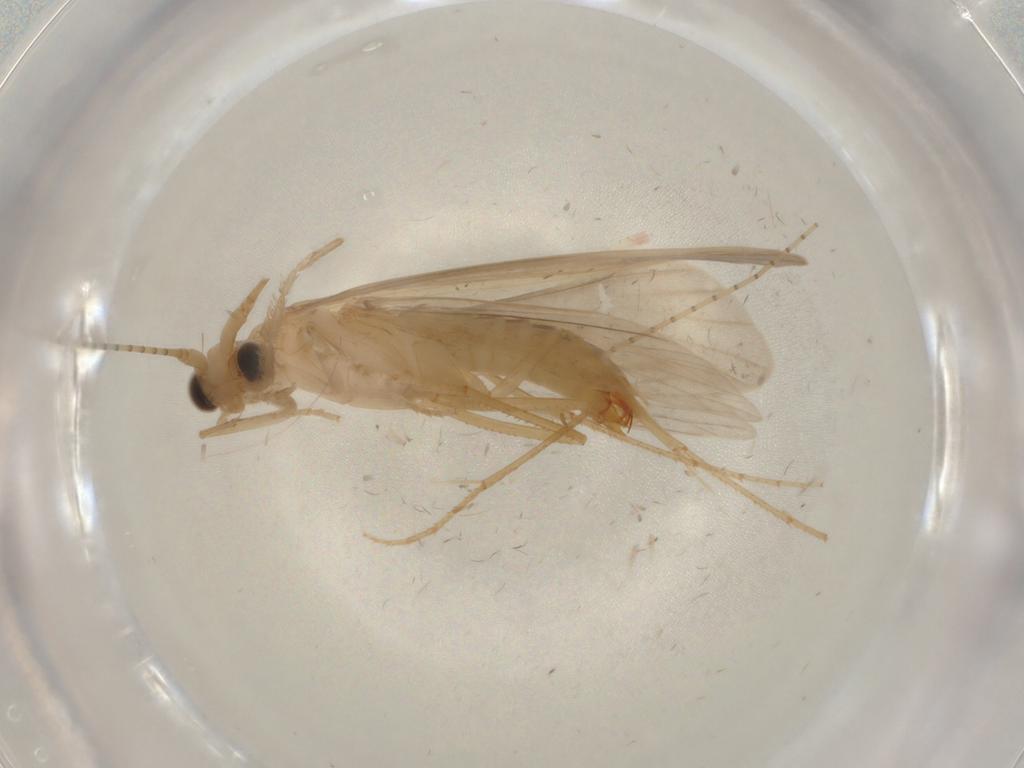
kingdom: Animalia
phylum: Arthropoda
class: Insecta
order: Trichoptera
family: Leptoceridae
